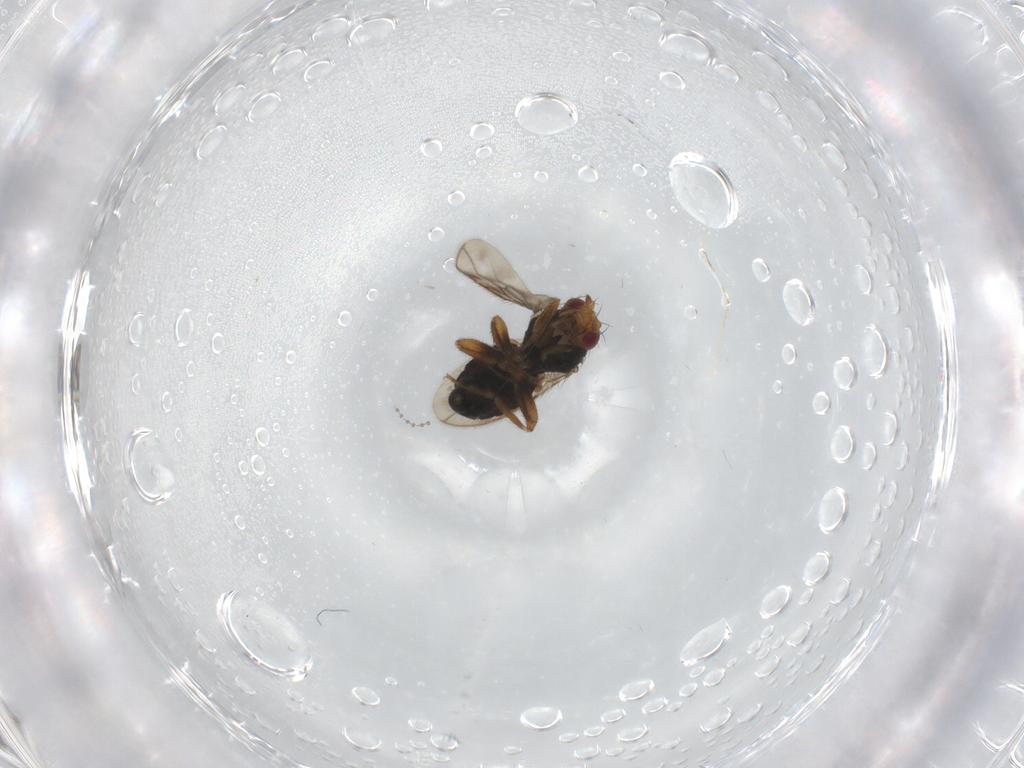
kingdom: Animalia
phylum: Arthropoda
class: Insecta
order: Diptera
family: Sphaeroceridae
